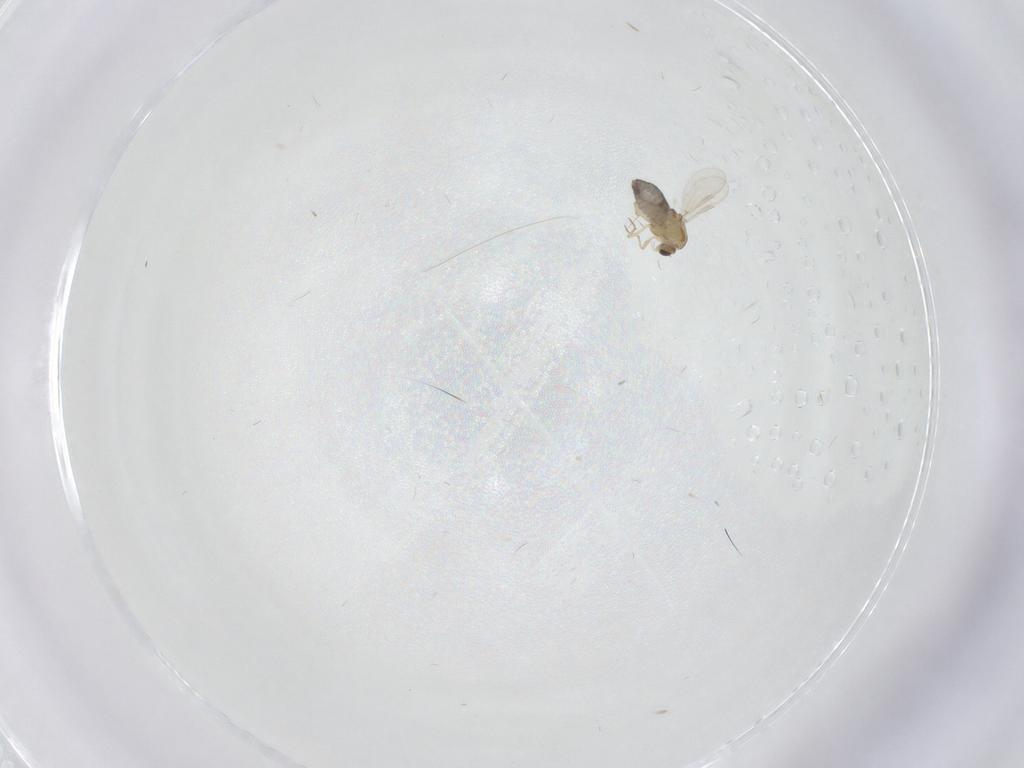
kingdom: Animalia
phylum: Arthropoda
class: Insecta
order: Diptera
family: Chironomidae
